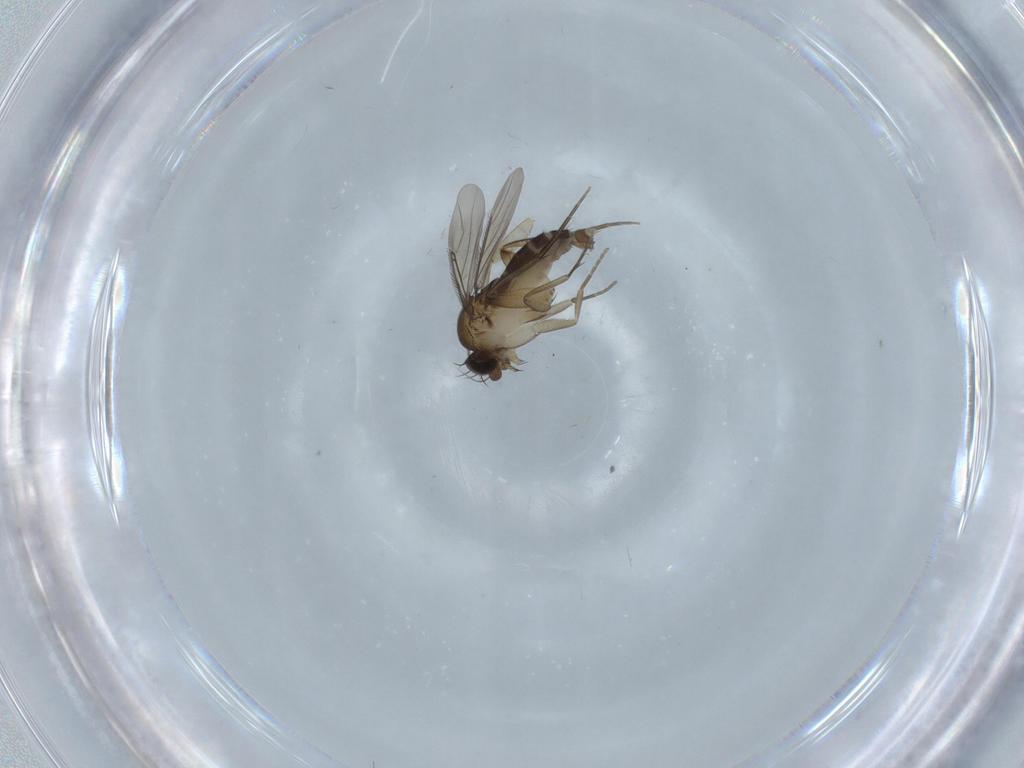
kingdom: Animalia
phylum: Arthropoda
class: Insecta
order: Diptera
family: Phoridae
